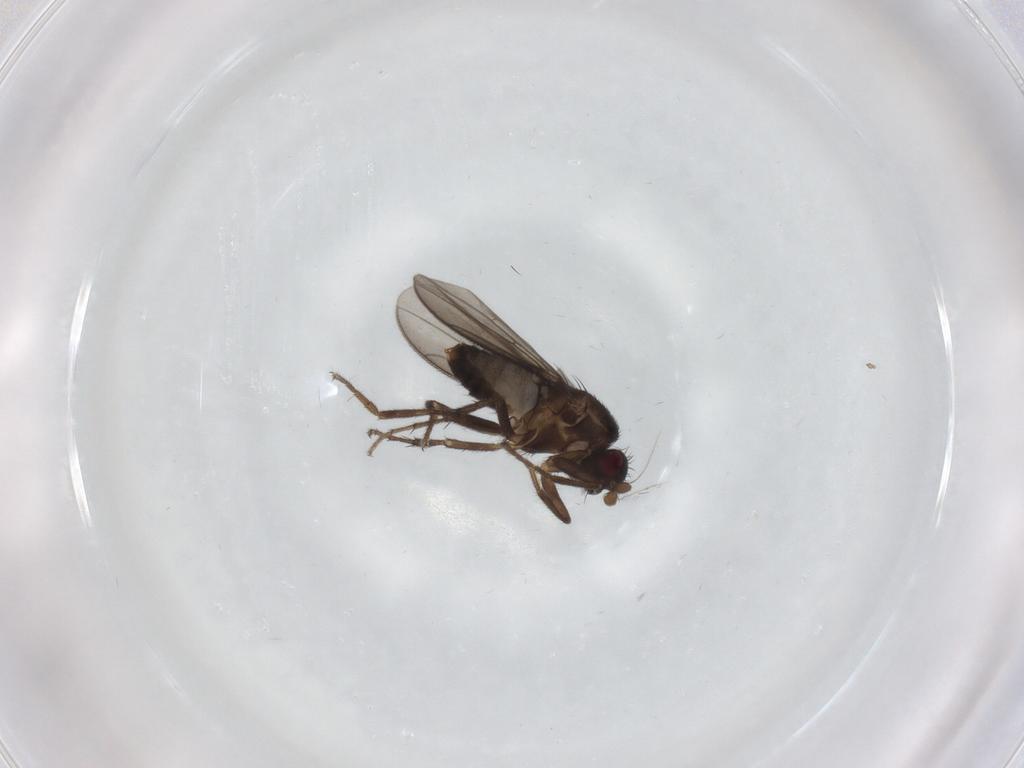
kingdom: Animalia
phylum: Arthropoda
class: Insecta
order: Diptera
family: Sphaeroceridae
